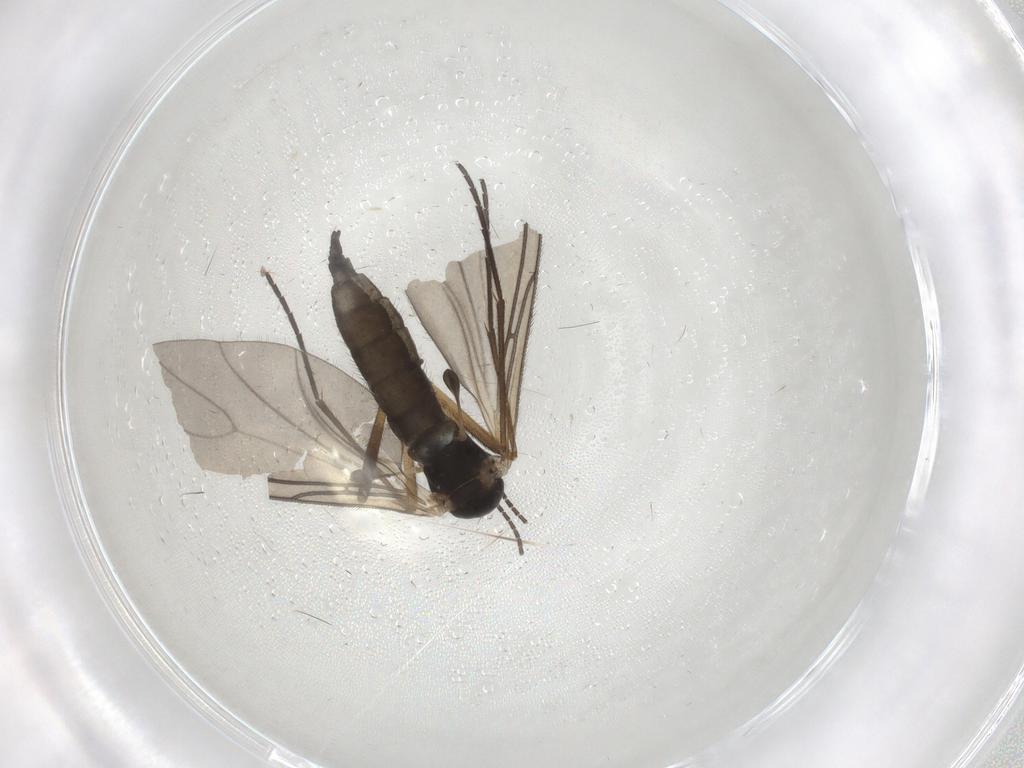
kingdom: Animalia
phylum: Arthropoda
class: Insecta
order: Diptera
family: Sciaridae
